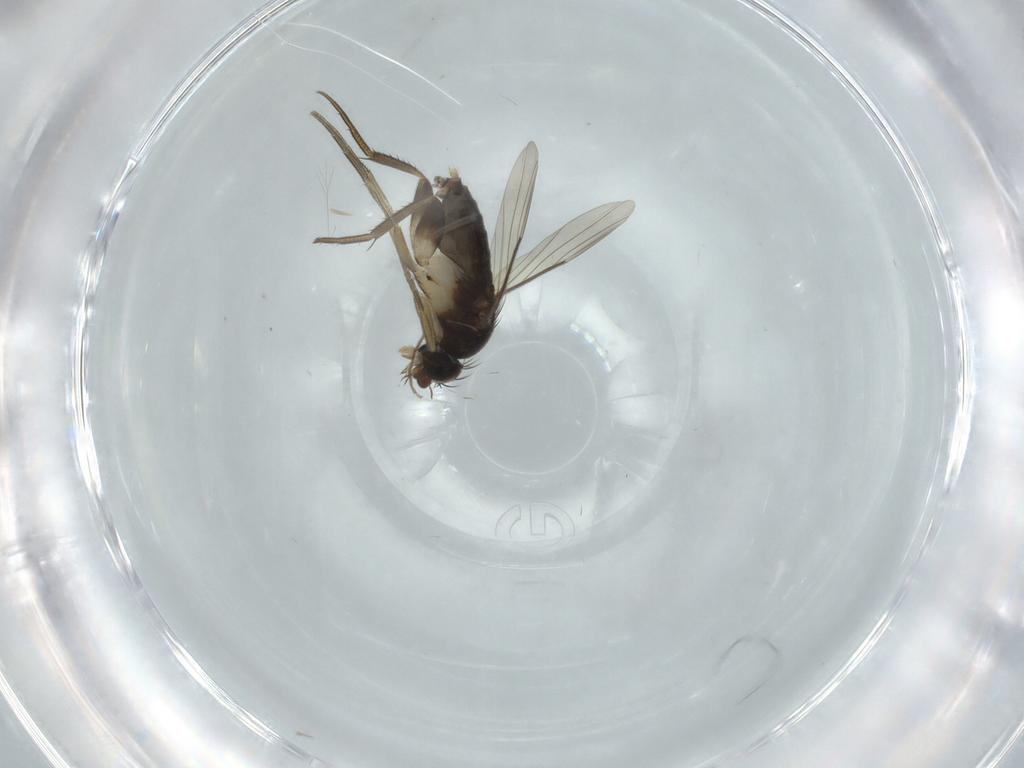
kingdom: Animalia
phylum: Arthropoda
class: Insecta
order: Diptera
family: Phoridae
